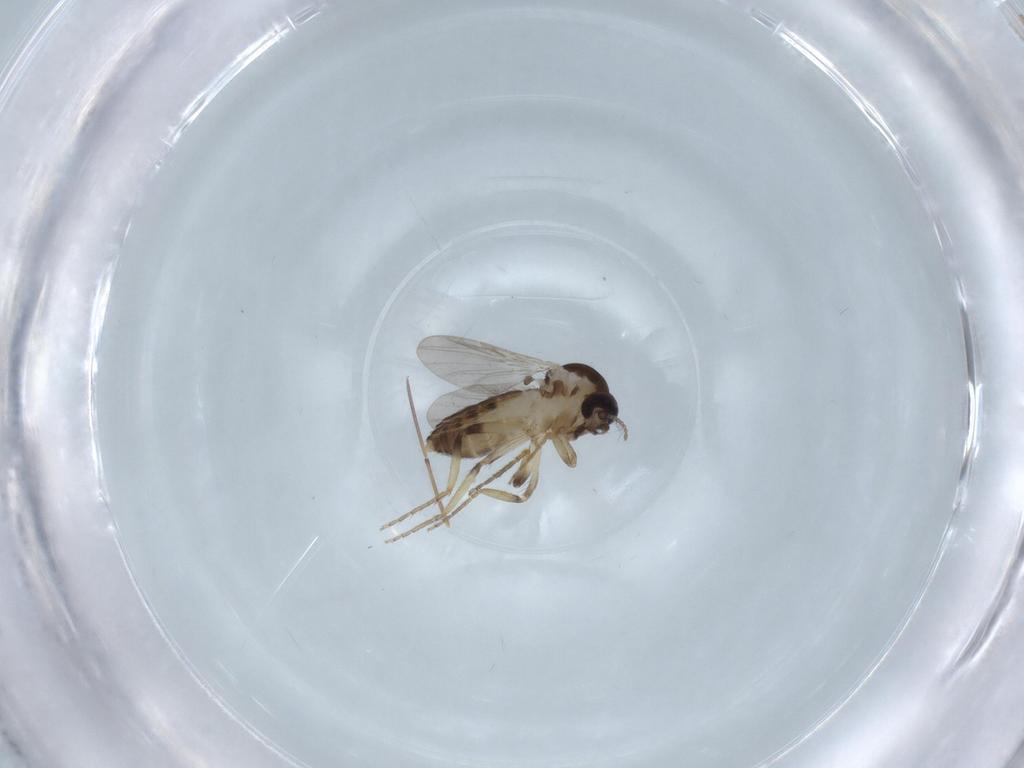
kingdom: Animalia
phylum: Arthropoda
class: Insecta
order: Diptera
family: Ceratopogonidae
